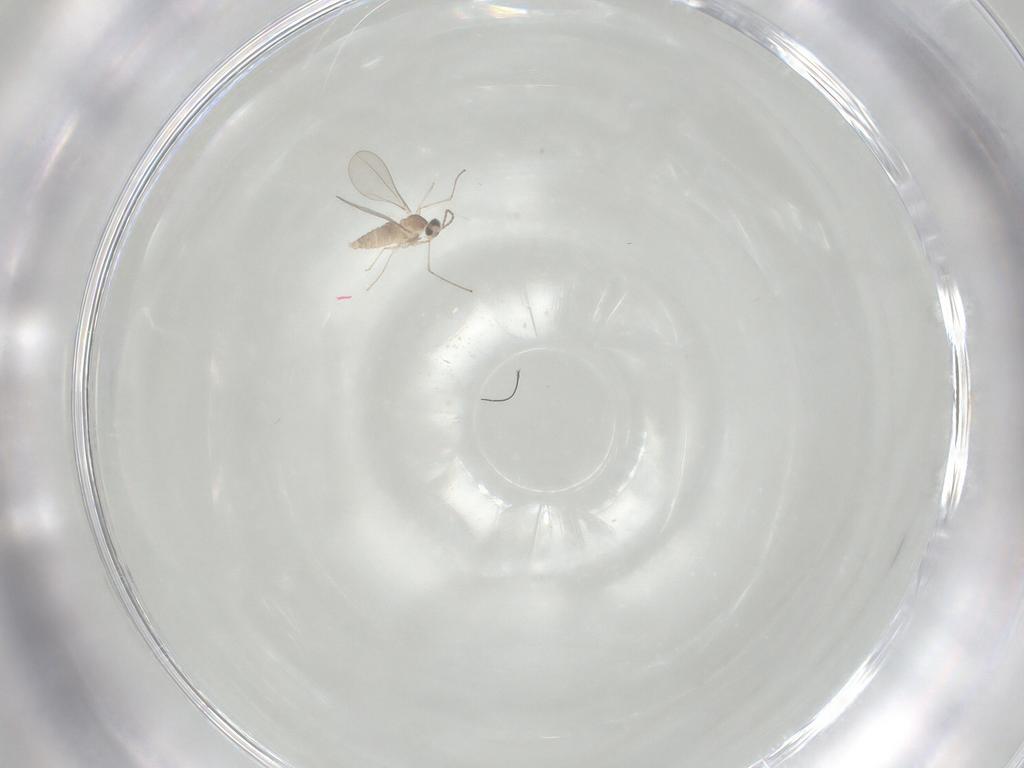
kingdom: Animalia
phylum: Arthropoda
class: Insecta
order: Diptera
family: Cecidomyiidae
